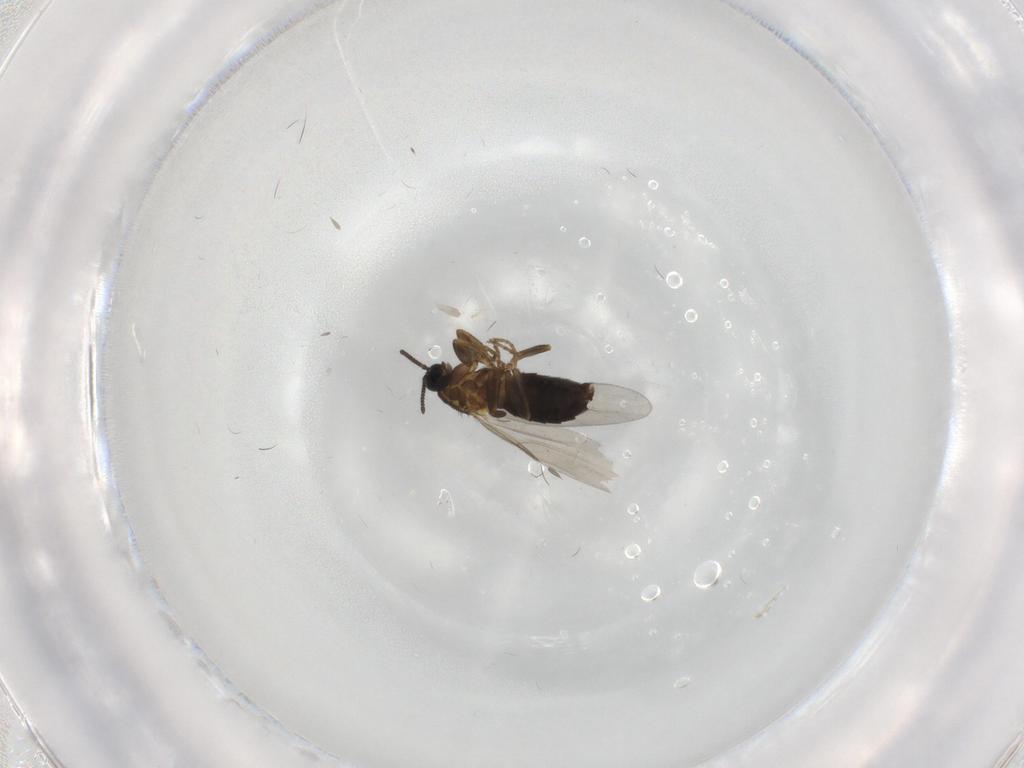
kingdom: Animalia
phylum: Arthropoda
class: Insecta
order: Diptera
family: Scatopsidae
